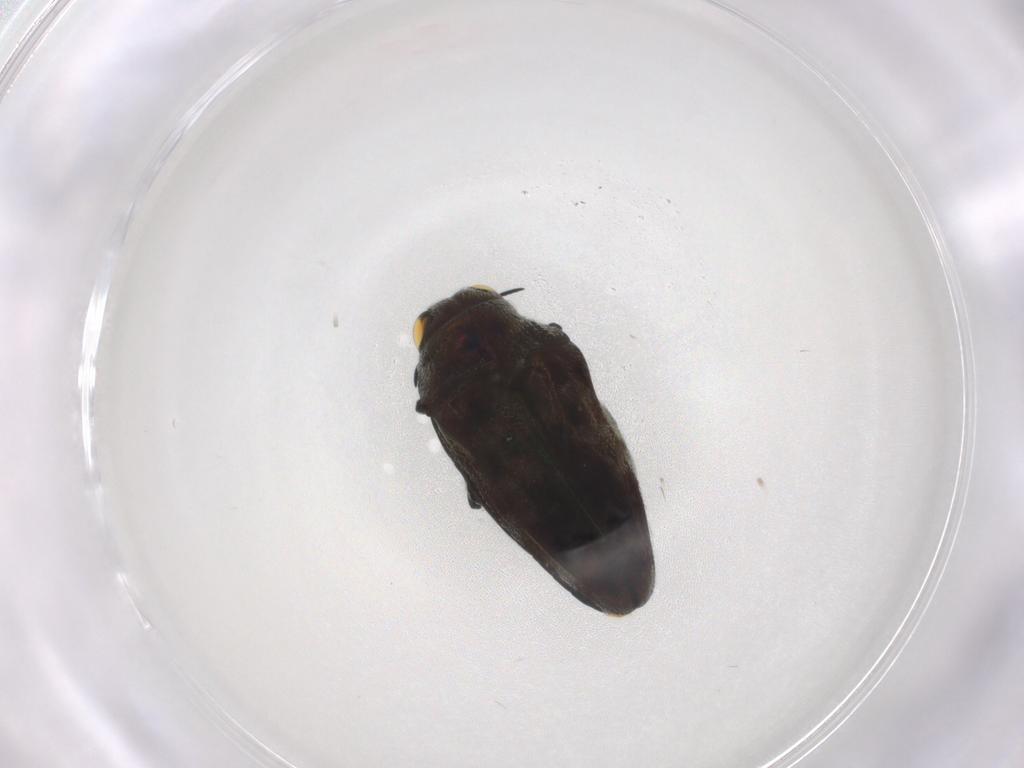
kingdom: Animalia
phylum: Arthropoda
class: Insecta
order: Coleoptera
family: Buprestidae
